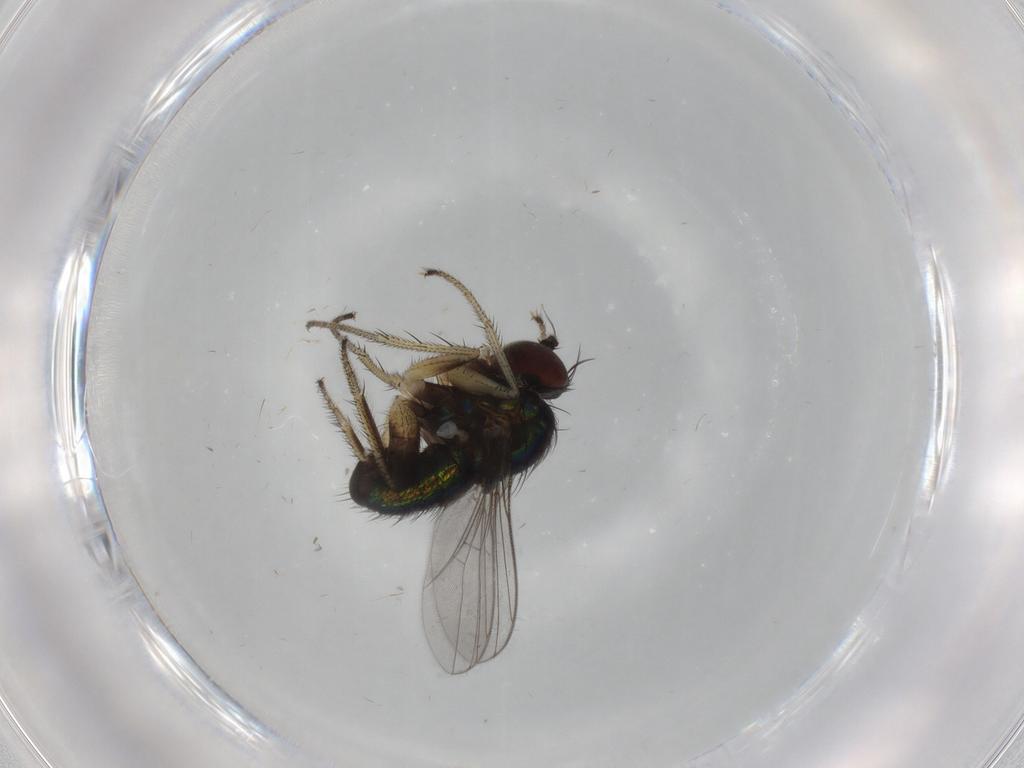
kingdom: Animalia
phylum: Arthropoda
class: Insecta
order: Diptera
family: Dolichopodidae
